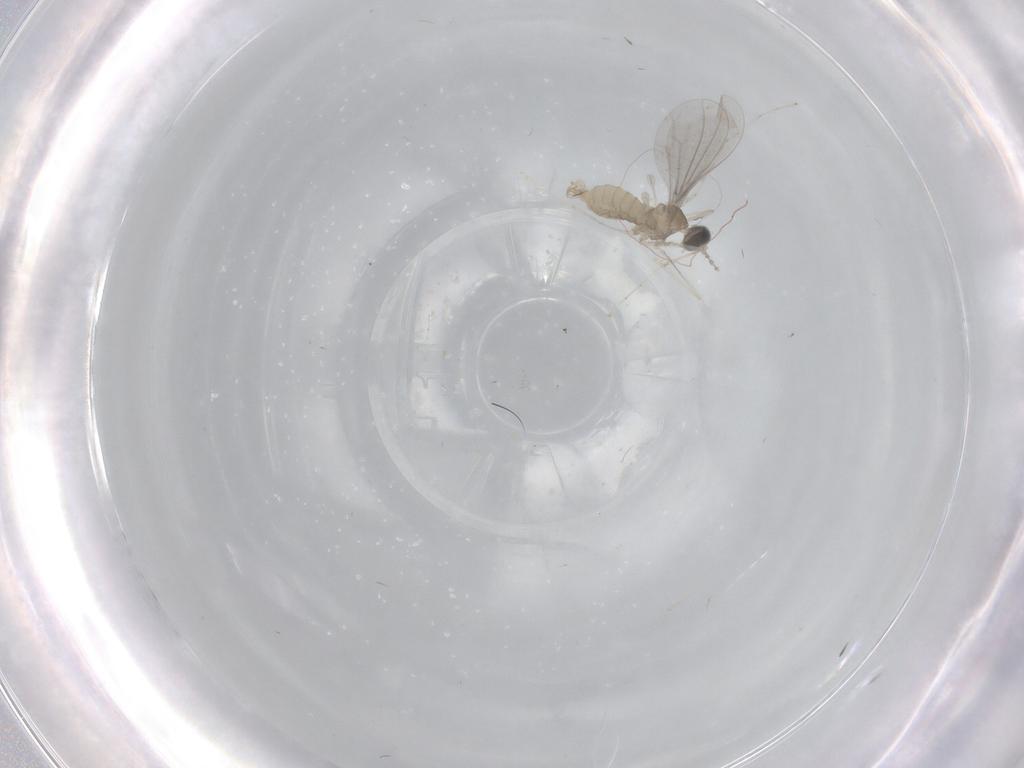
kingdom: Animalia
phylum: Arthropoda
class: Insecta
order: Diptera
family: Cecidomyiidae
